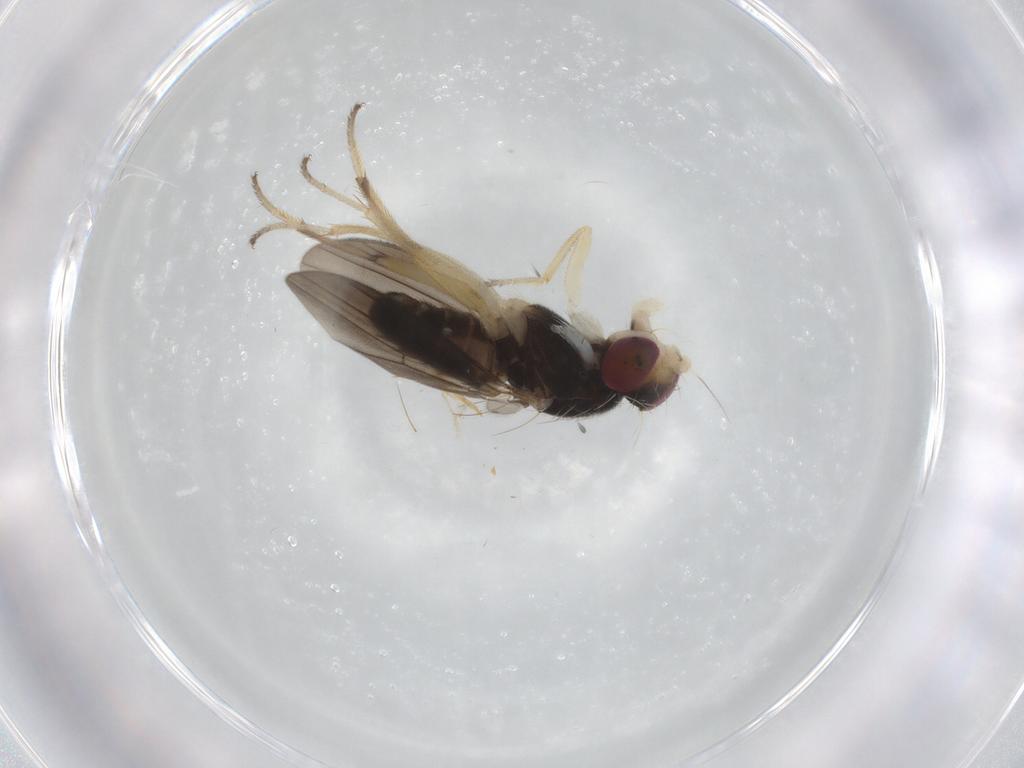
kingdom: Animalia
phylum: Arthropoda
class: Insecta
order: Diptera
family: Clusiidae
